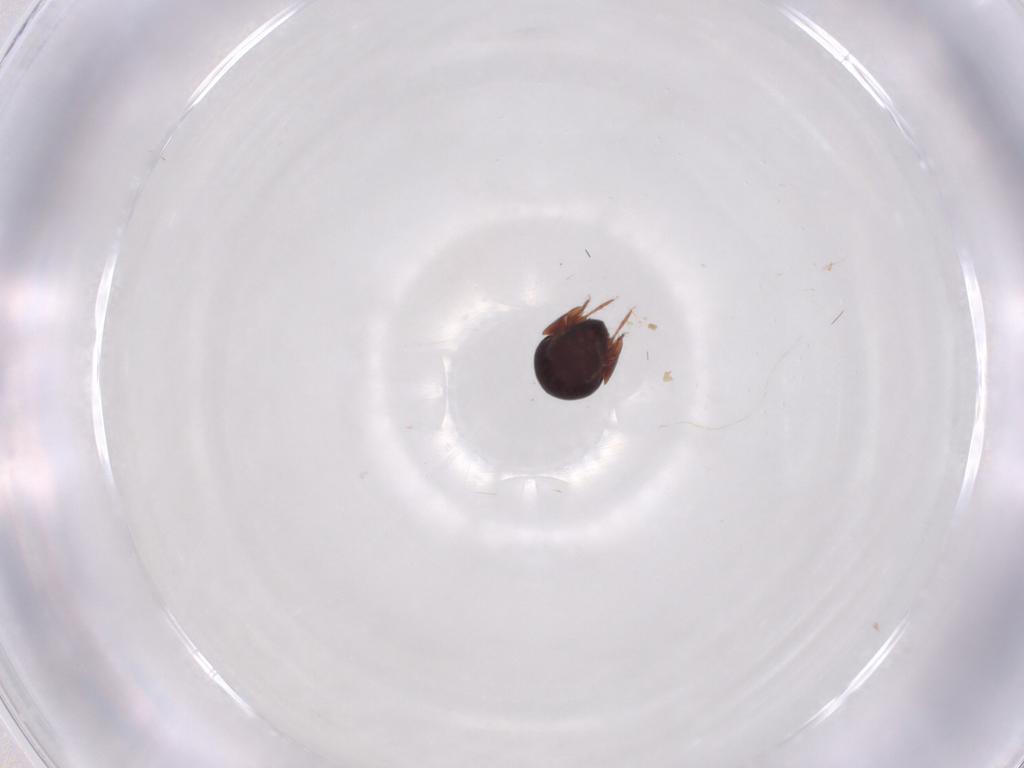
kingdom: Animalia
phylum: Arthropoda
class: Arachnida
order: Sarcoptiformes
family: Galumnidae
